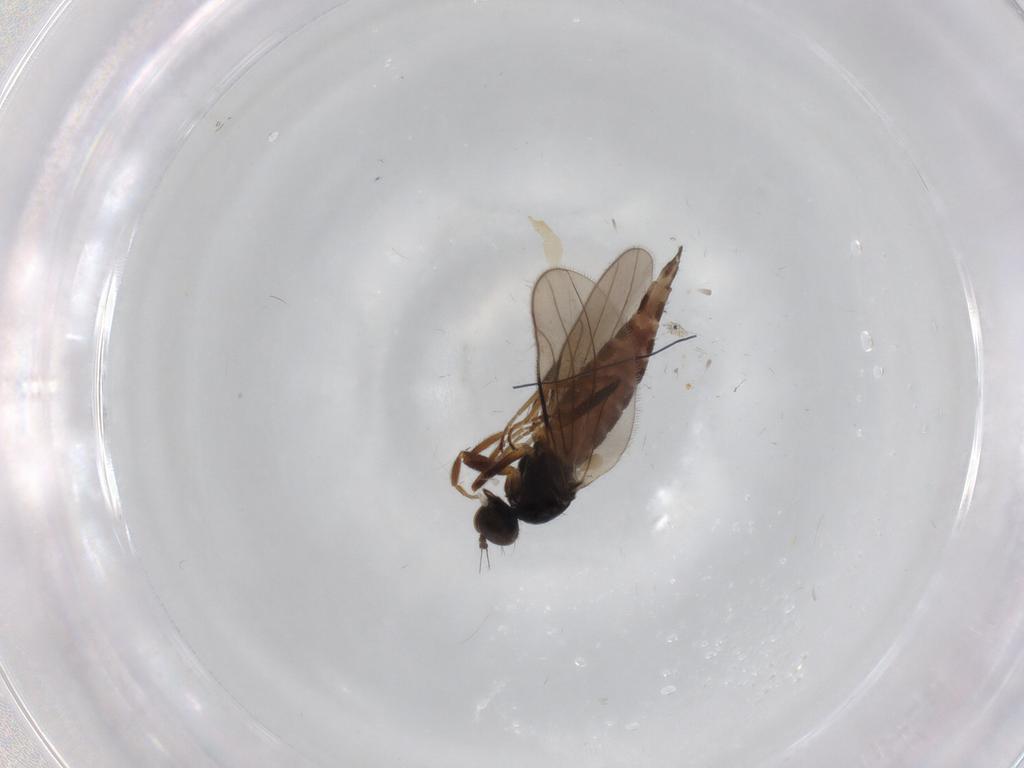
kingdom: Animalia
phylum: Arthropoda
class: Insecta
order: Diptera
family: Hybotidae
